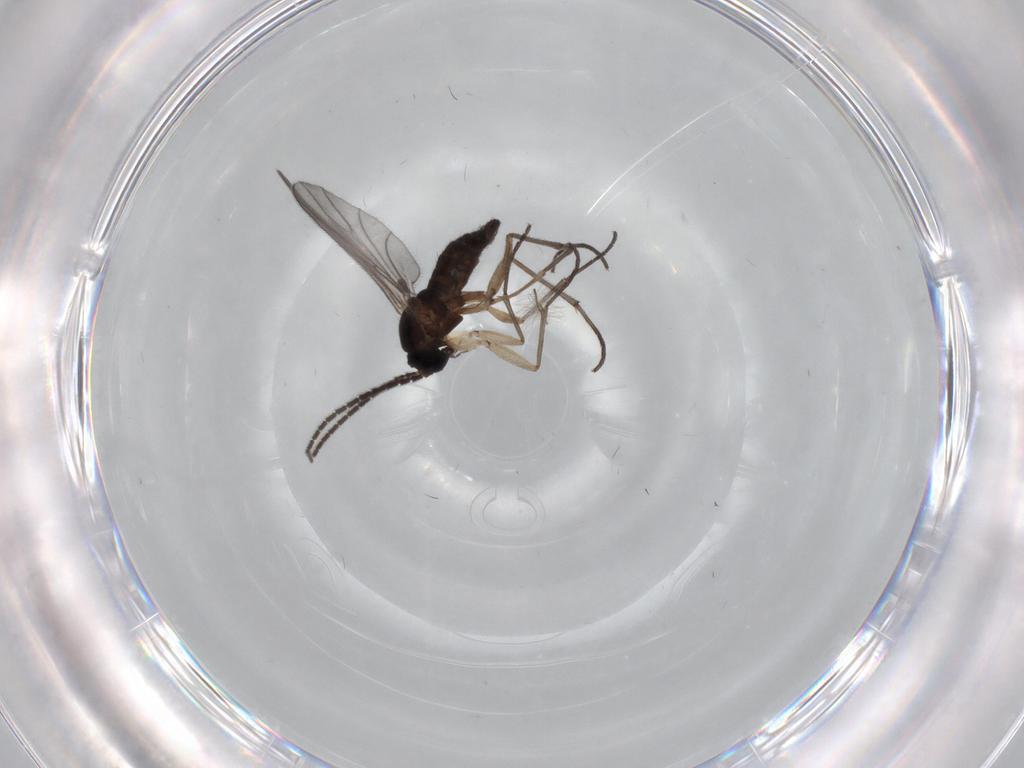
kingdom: Animalia
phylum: Arthropoda
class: Insecta
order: Diptera
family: Sciaridae
